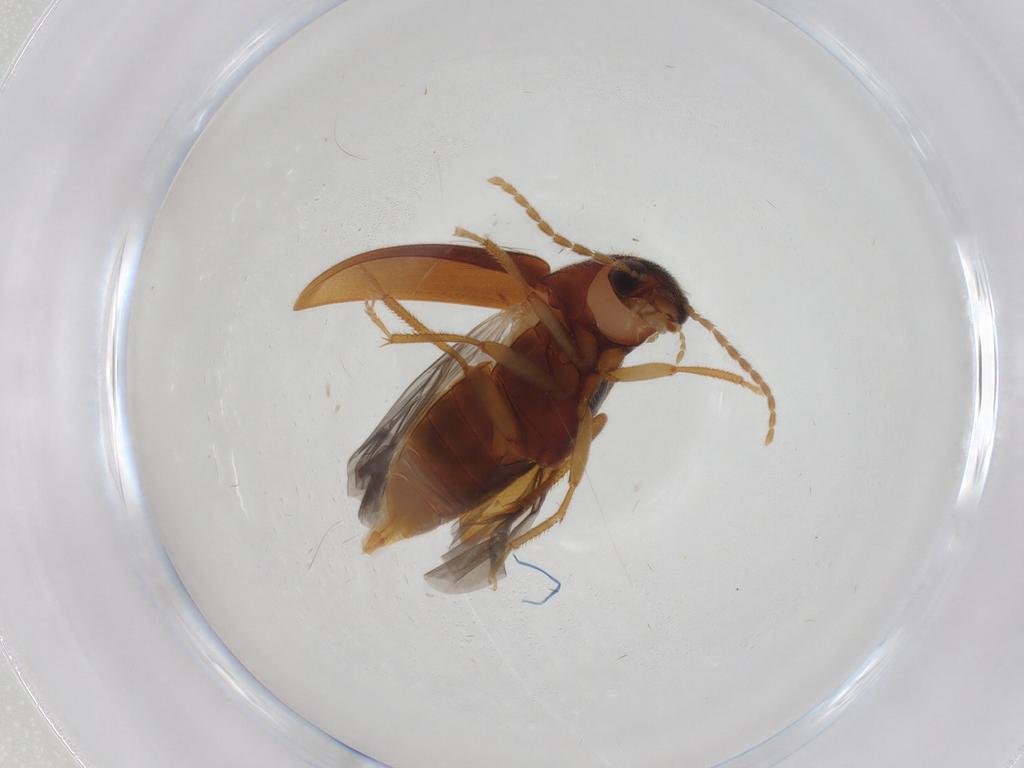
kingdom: Animalia
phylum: Arthropoda
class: Insecta
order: Coleoptera
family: Ptilodactylidae
